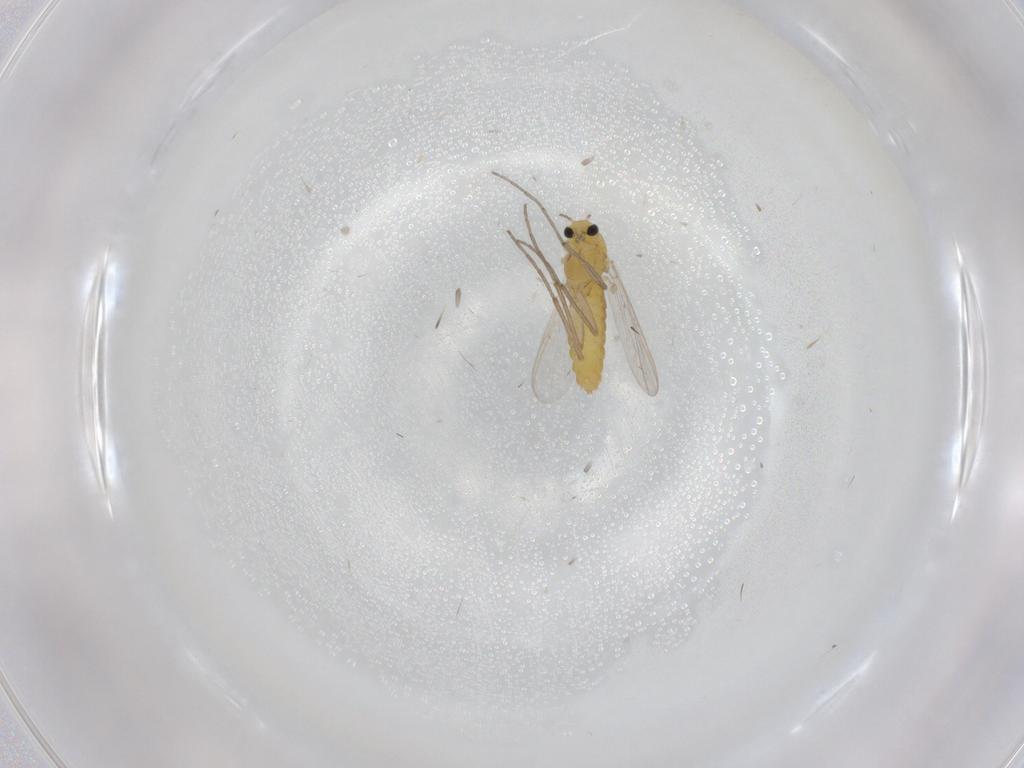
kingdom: Animalia
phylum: Arthropoda
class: Insecta
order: Diptera
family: Chironomidae
